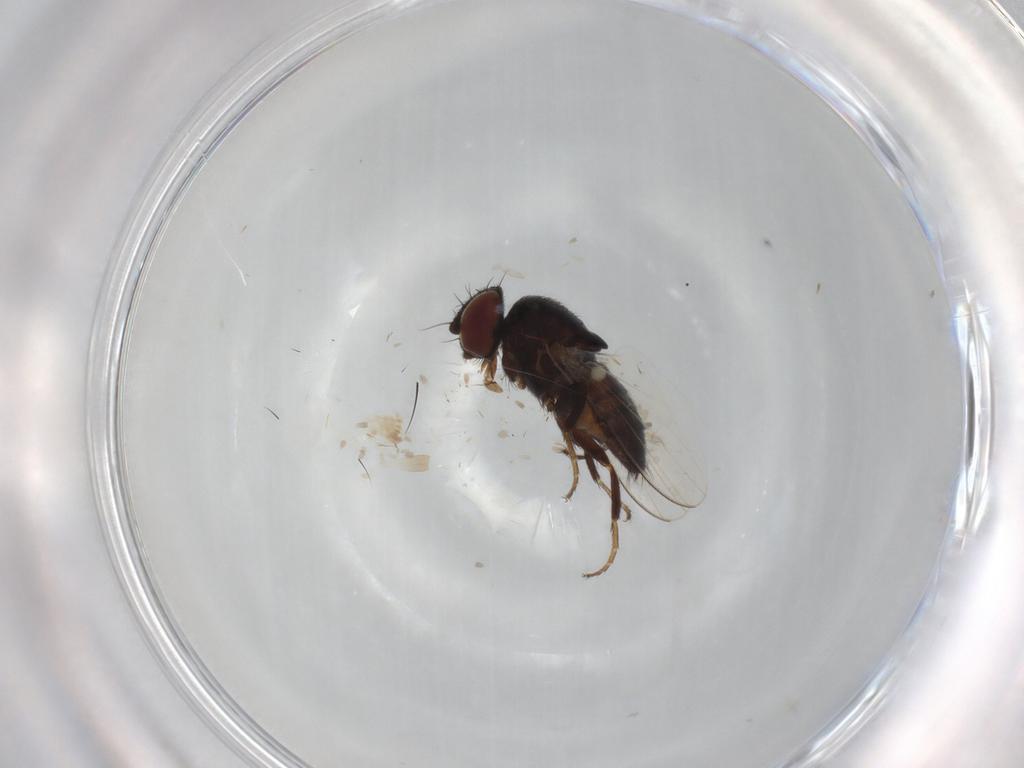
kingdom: Animalia
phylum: Arthropoda
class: Insecta
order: Diptera
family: Milichiidae
